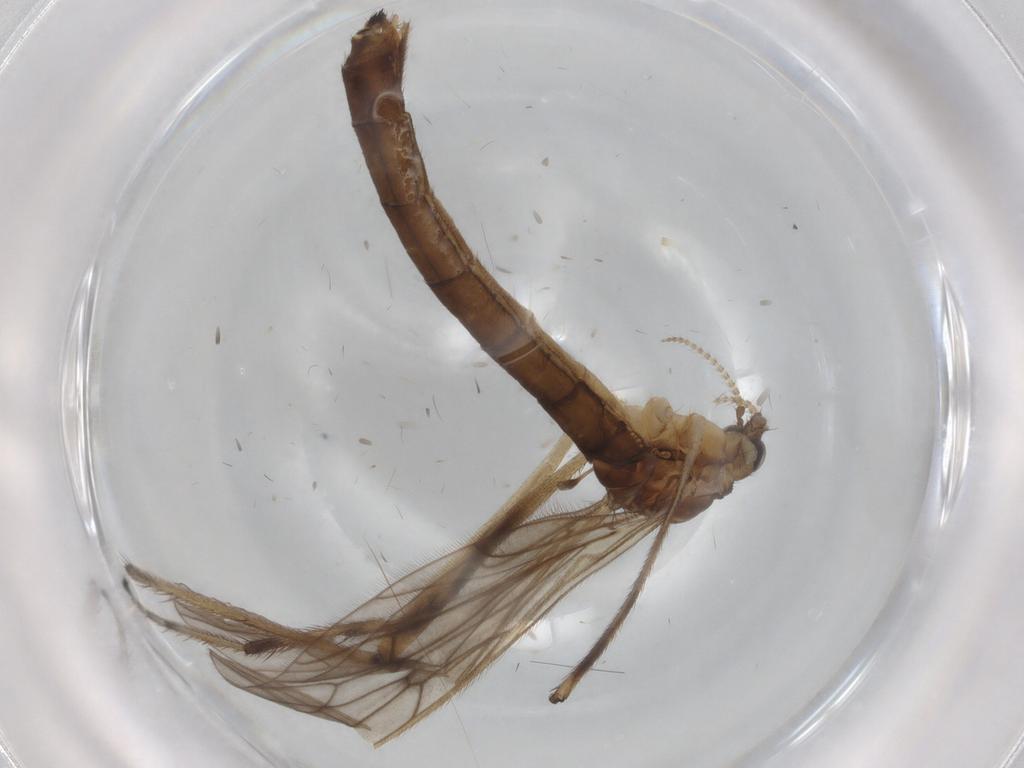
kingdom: Animalia
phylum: Arthropoda
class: Insecta
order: Diptera
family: Limoniidae
